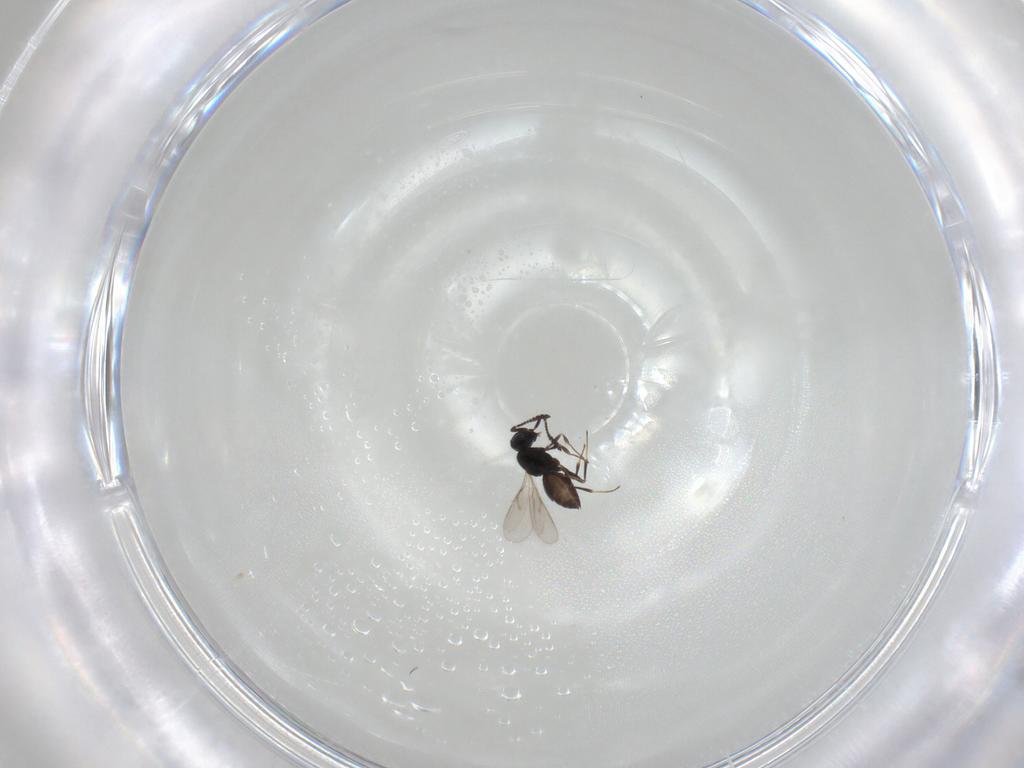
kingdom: Animalia
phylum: Arthropoda
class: Insecta
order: Hymenoptera
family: Scelionidae
